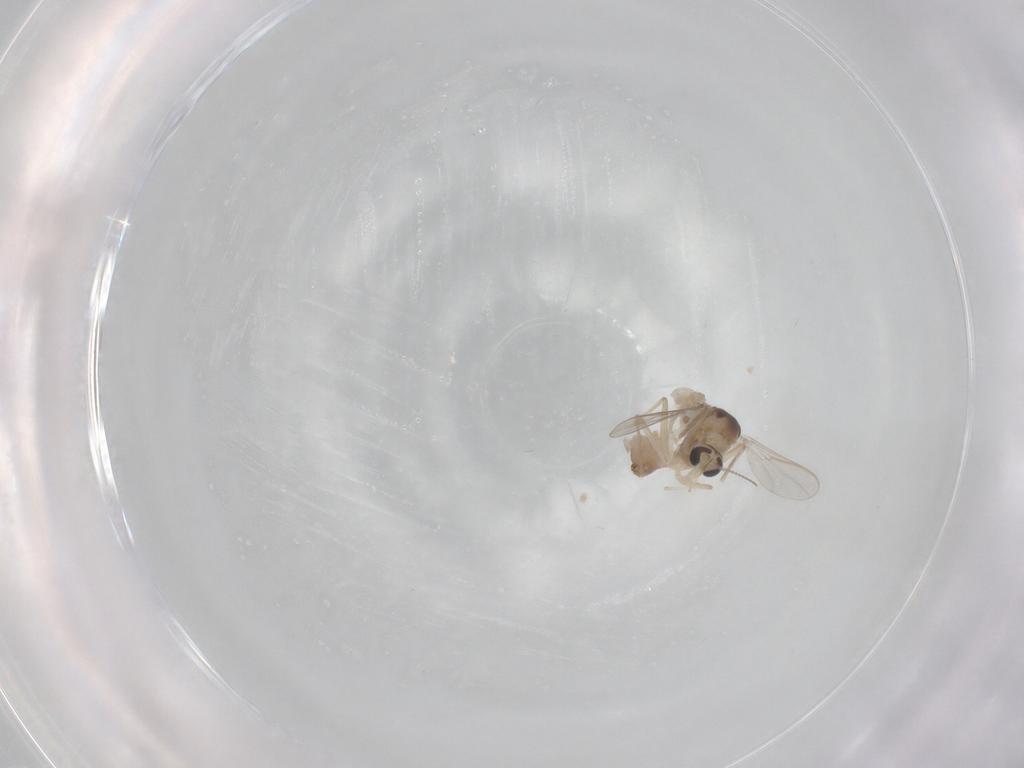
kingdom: Animalia
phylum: Arthropoda
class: Insecta
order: Diptera
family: Chironomidae
